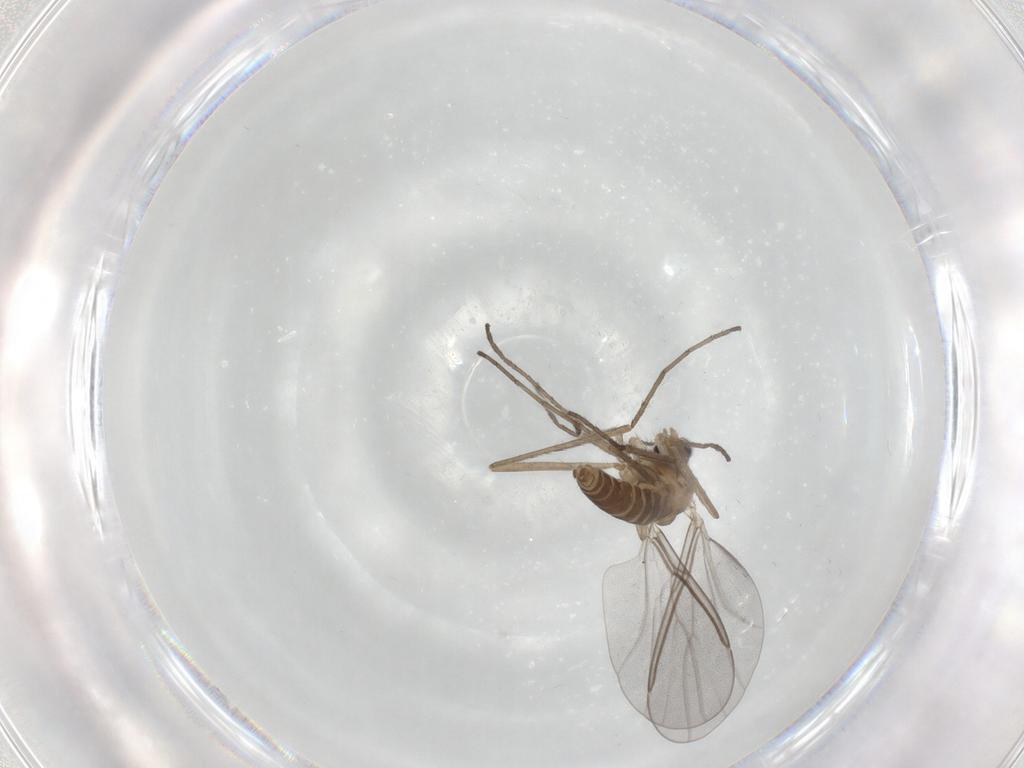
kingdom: Animalia
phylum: Arthropoda
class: Insecta
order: Diptera
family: Cecidomyiidae
